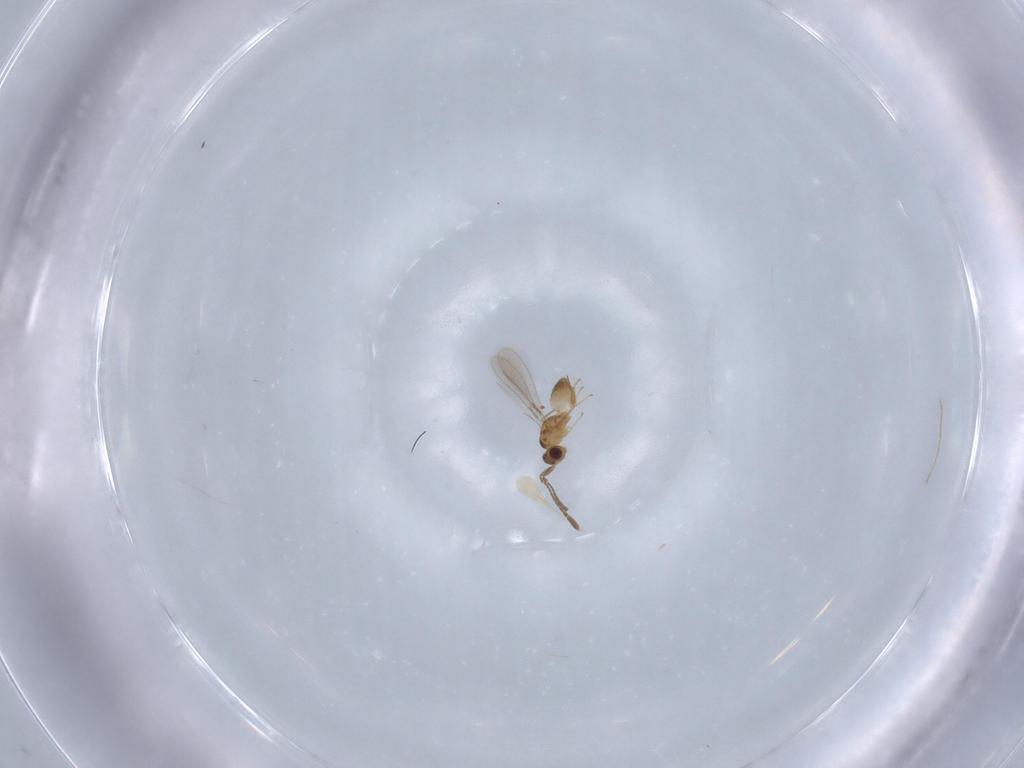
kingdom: Animalia
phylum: Arthropoda
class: Insecta
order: Hymenoptera
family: Mymaridae
